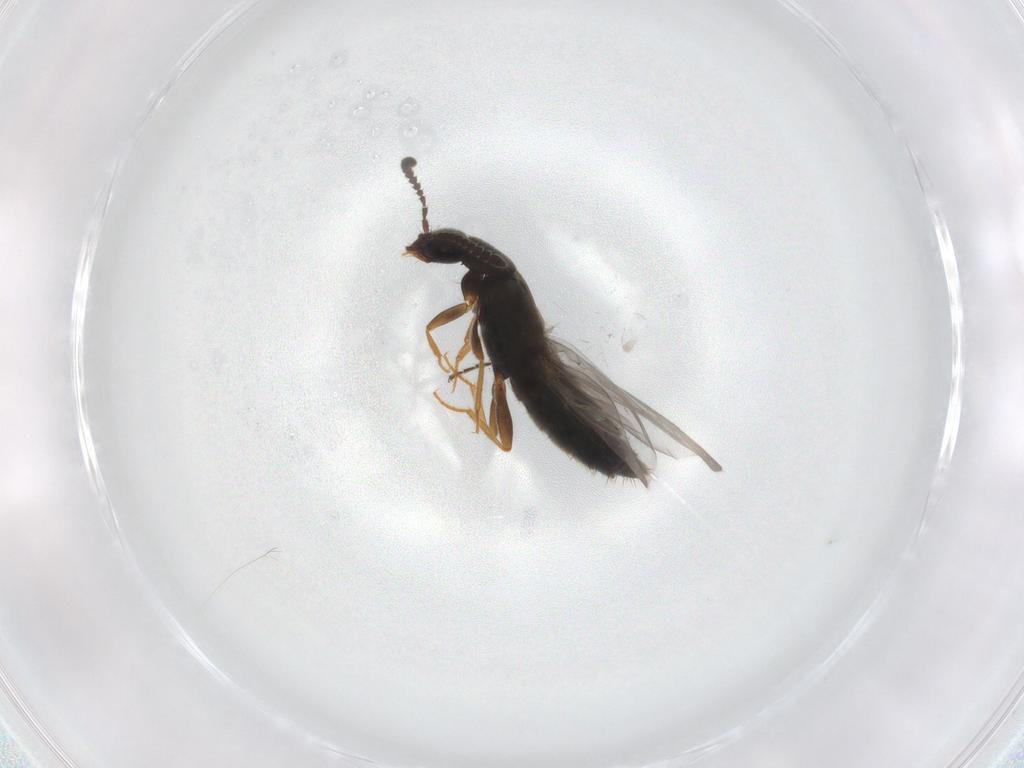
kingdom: Animalia
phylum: Arthropoda
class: Insecta
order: Coleoptera
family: Staphylinidae
